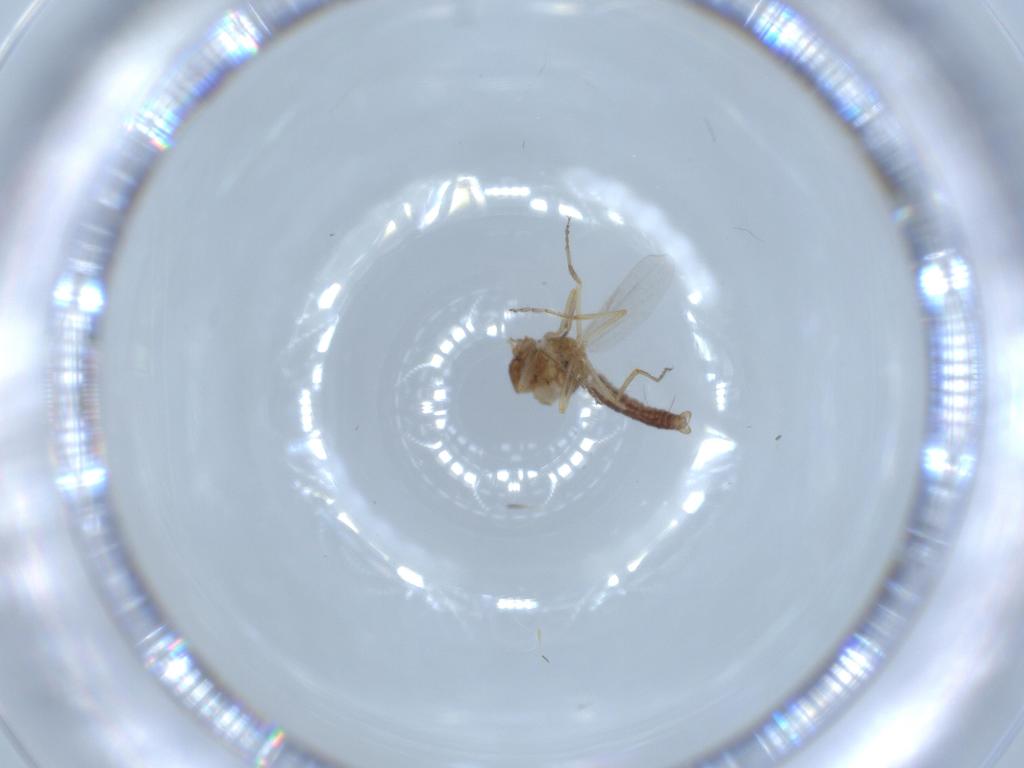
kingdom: Animalia
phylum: Arthropoda
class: Insecta
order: Diptera
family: Ceratopogonidae
